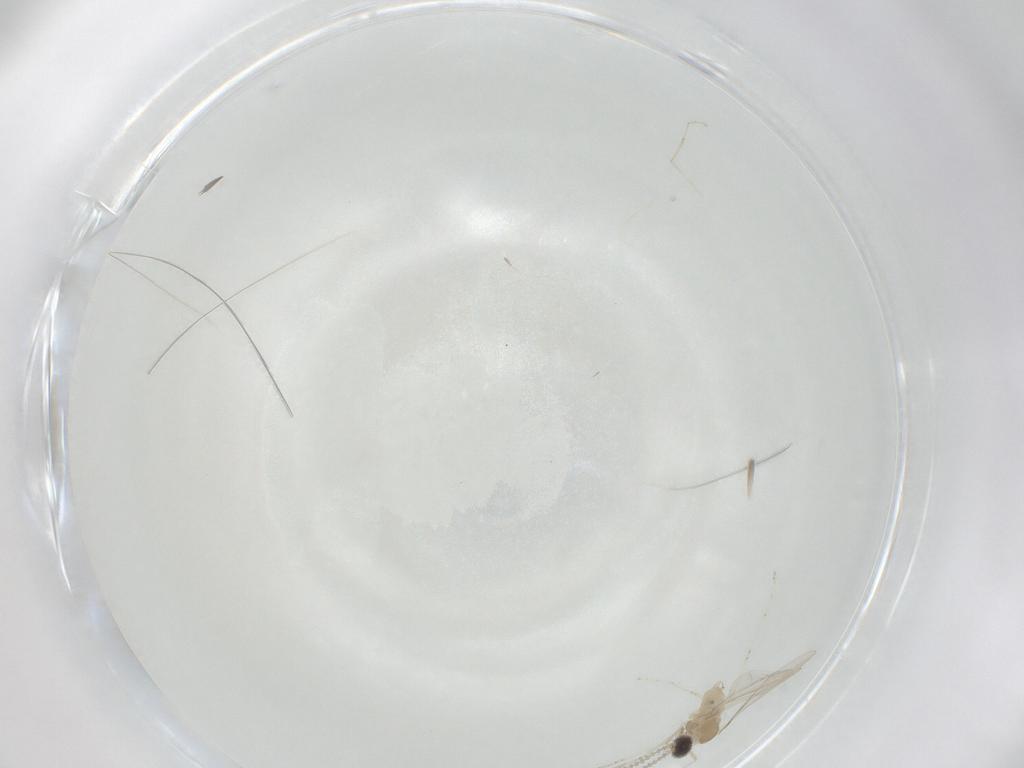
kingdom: Animalia
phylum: Arthropoda
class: Insecta
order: Diptera
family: Cecidomyiidae
